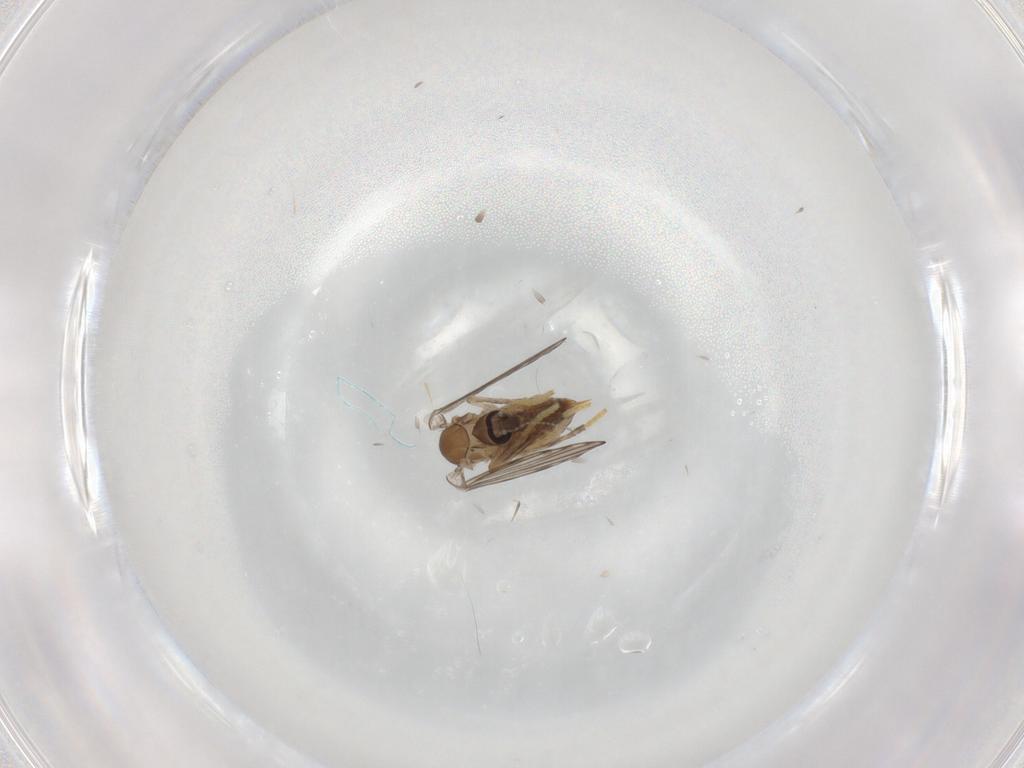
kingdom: Animalia
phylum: Arthropoda
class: Insecta
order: Diptera
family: Psychodidae
